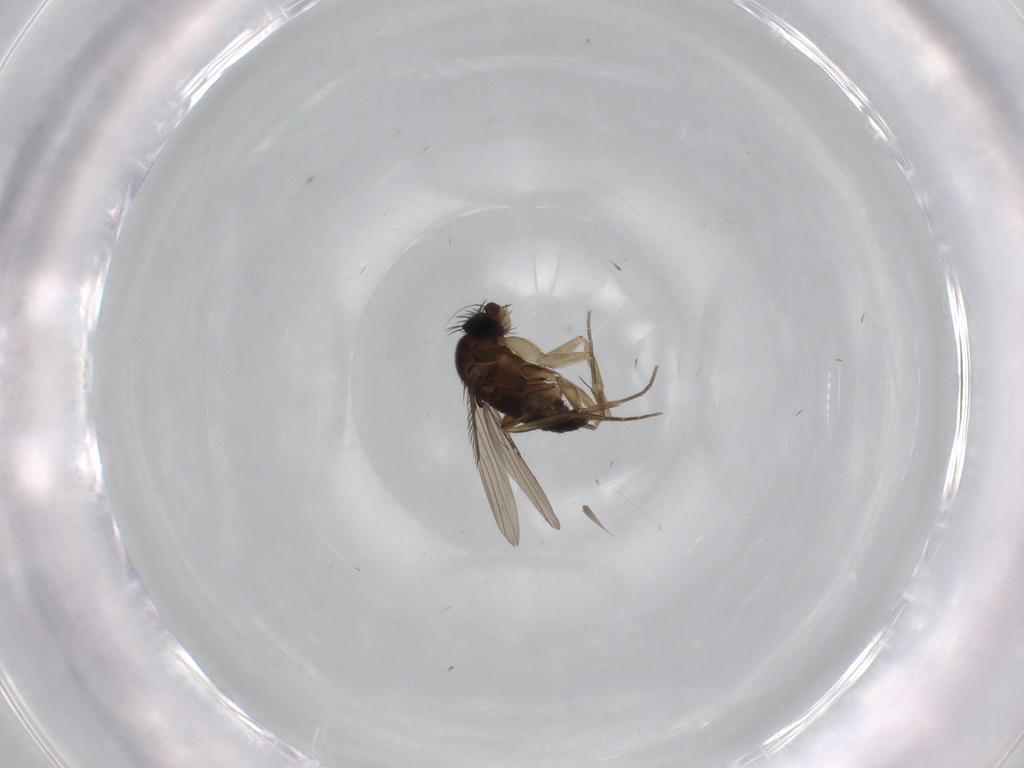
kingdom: Animalia
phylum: Arthropoda
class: Insecta
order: Diptera
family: Phoridae
